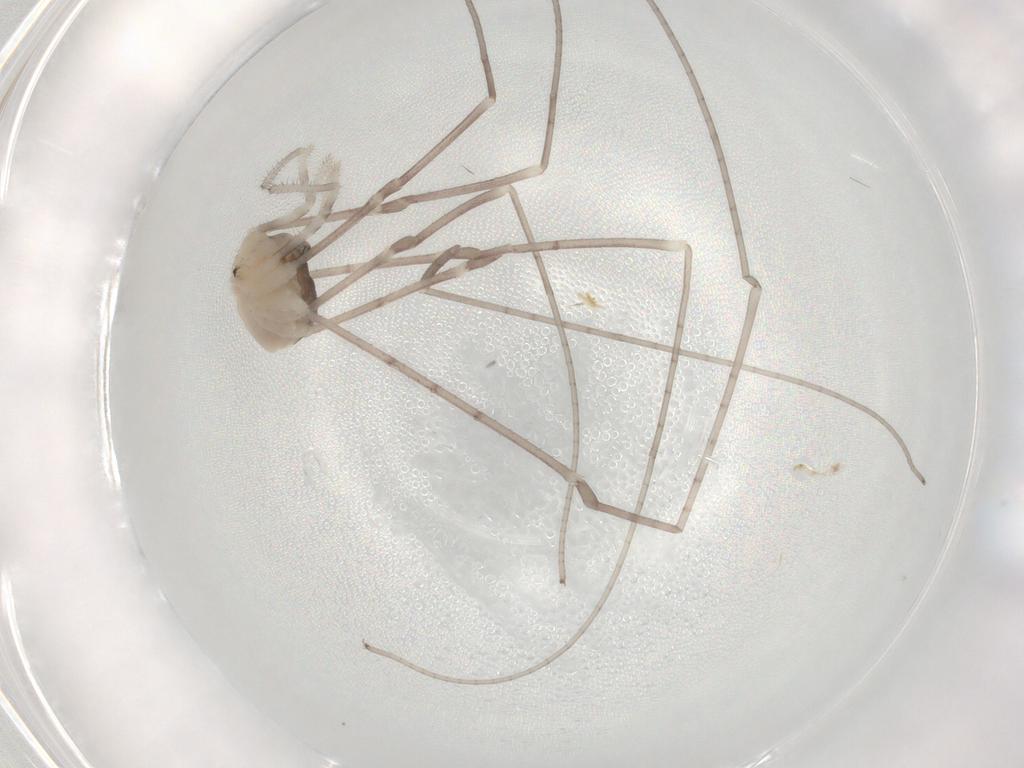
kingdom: Animalia
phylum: Arthropoda
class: Arachnida
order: Opiliones
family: Sclerosomatidae
